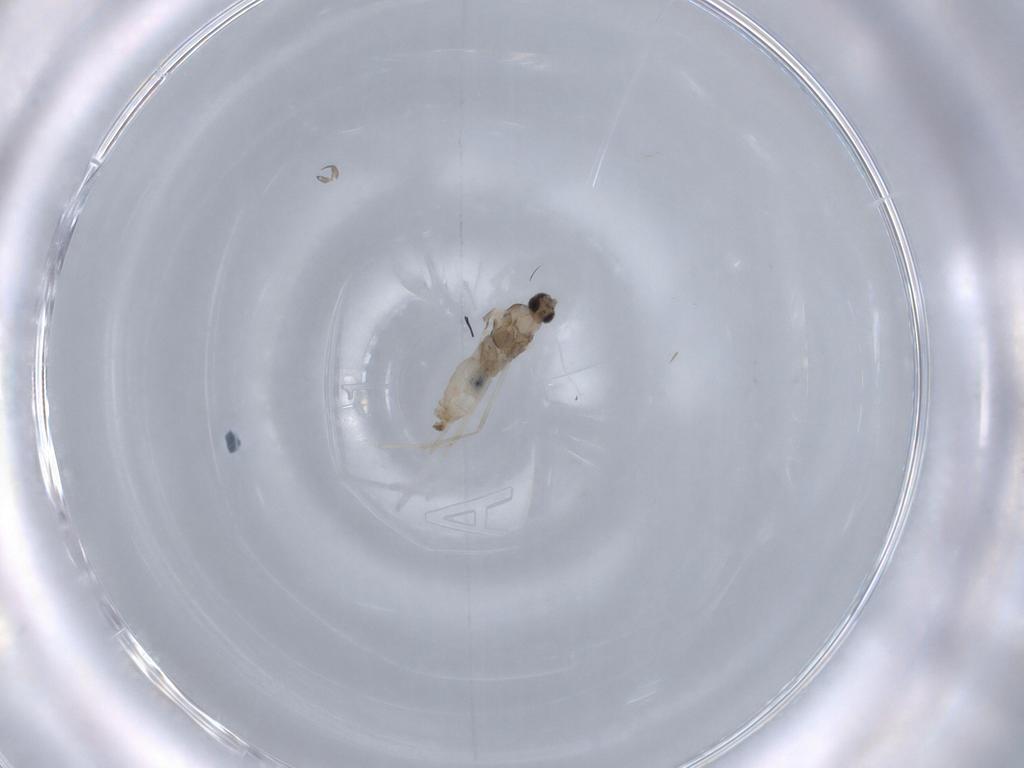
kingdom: Animalia
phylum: Arthropoda
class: Insecta
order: Diptera
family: Cecidomyiidae
